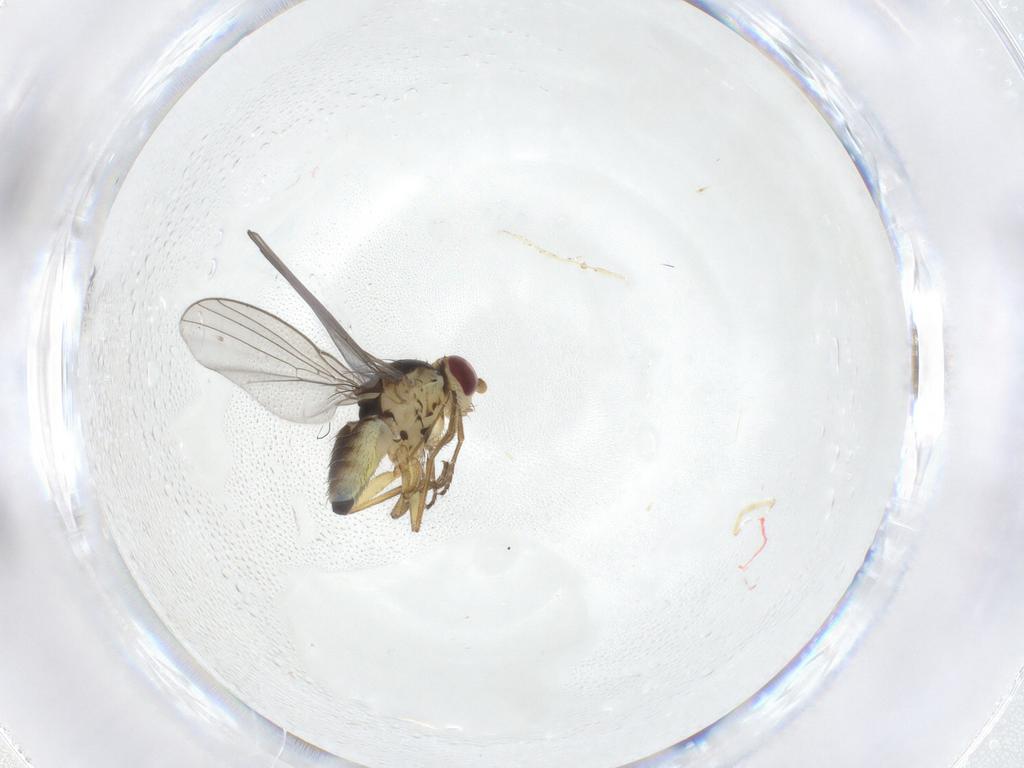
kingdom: Animalia
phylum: Arthropoda
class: Insecta
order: Diptera
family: Agromyzidae
